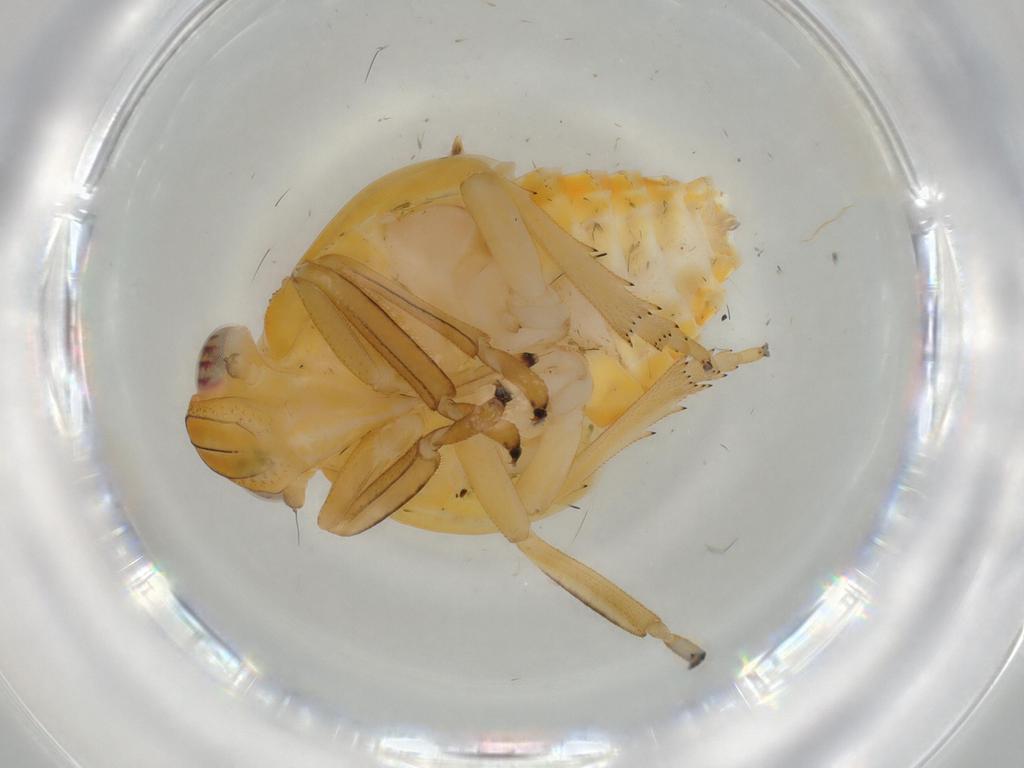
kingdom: Animalia
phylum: Arthropoda
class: Insecta
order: Hemiptera
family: Issidae
